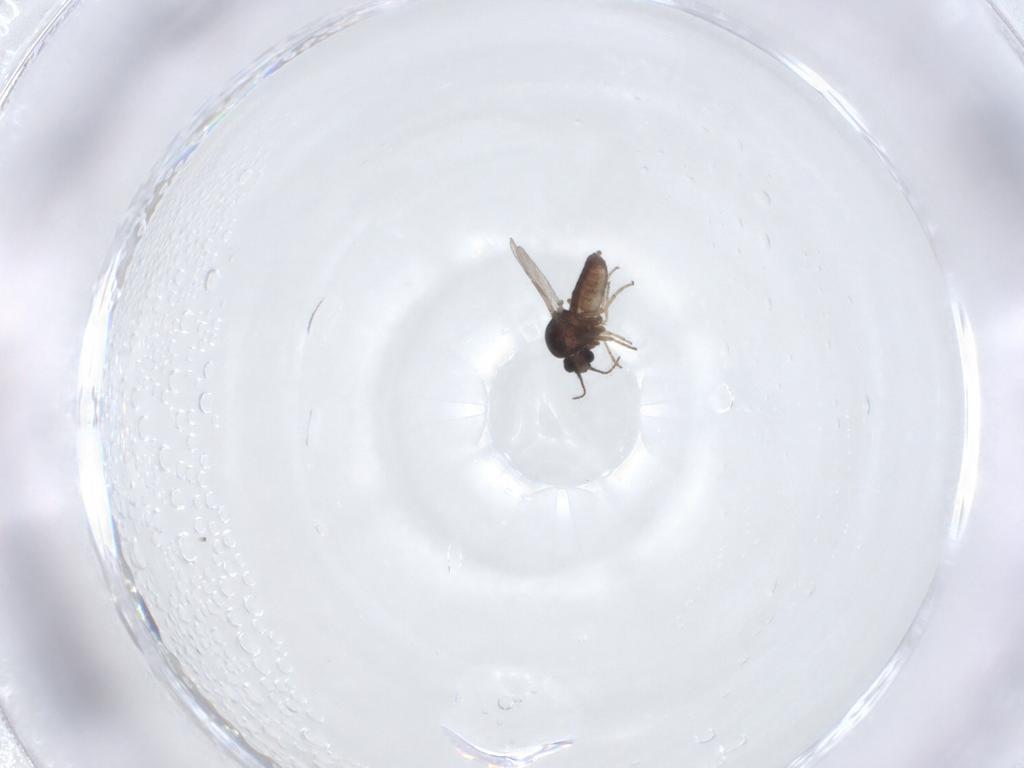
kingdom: Animalia
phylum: Arthropoda
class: Insecta
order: Diptera
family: Ceratopogonidae
